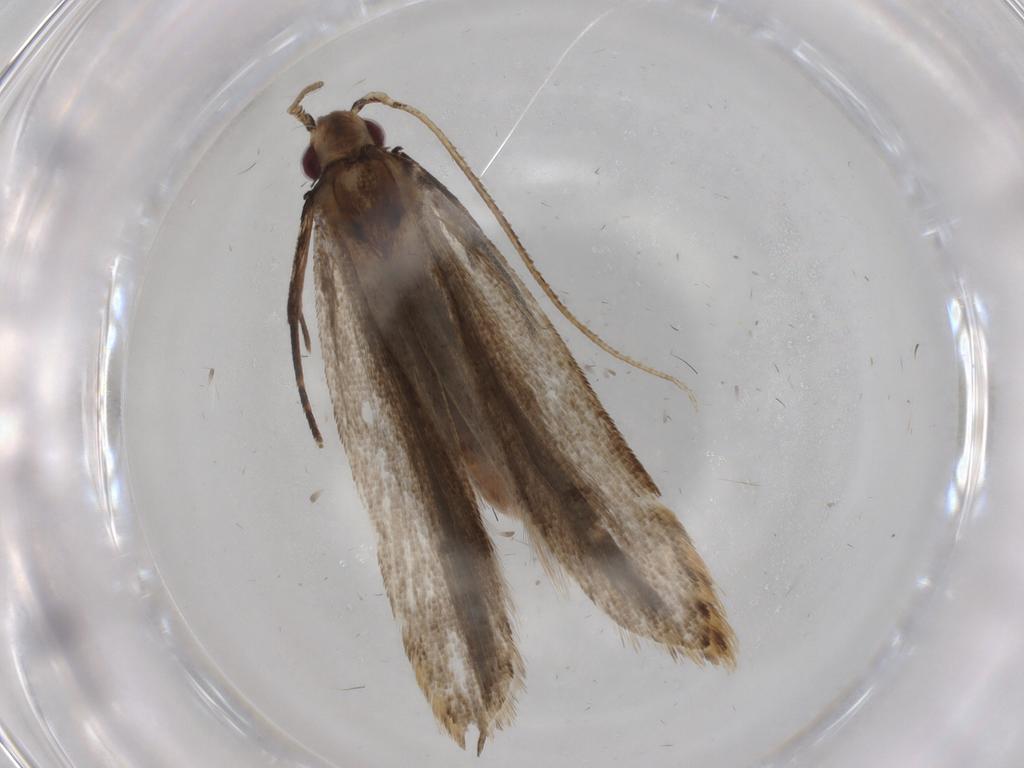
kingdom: Animalia
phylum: Arthropoda
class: Insecta
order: Lepidoptera
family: Gelechiidae
